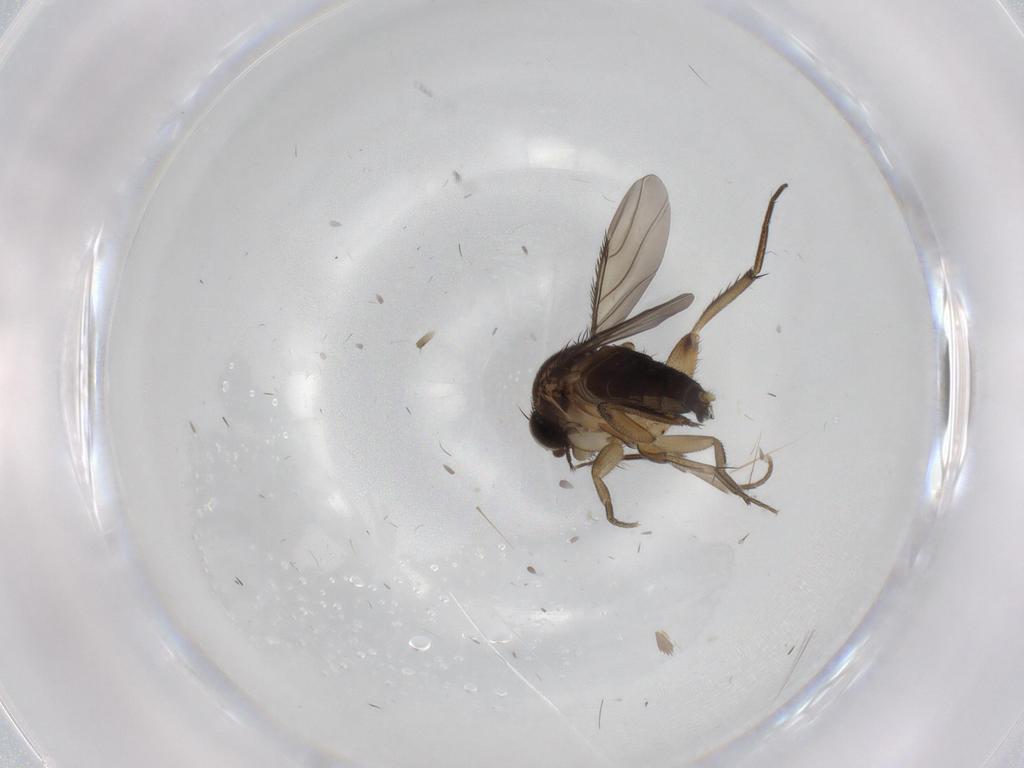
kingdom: Animalia
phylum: Arthropoda
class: Insecta
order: Diptera
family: Phoridae
